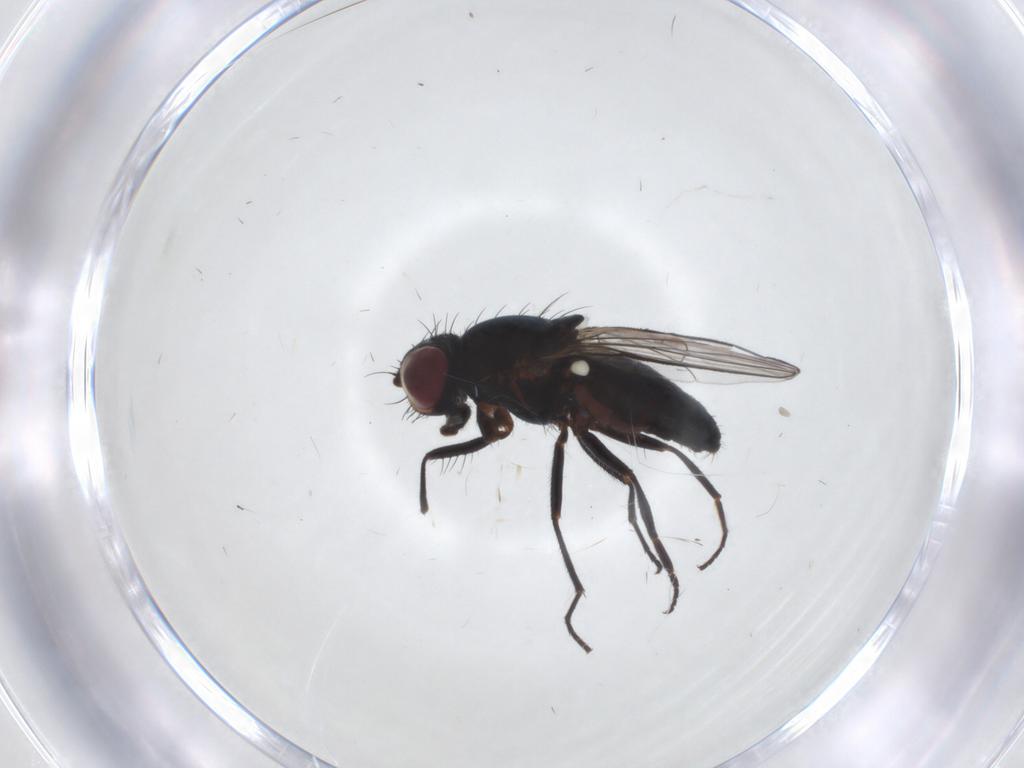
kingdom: Animalia
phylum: Arthropoda
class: Insecta
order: Diptera
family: Carnidae
